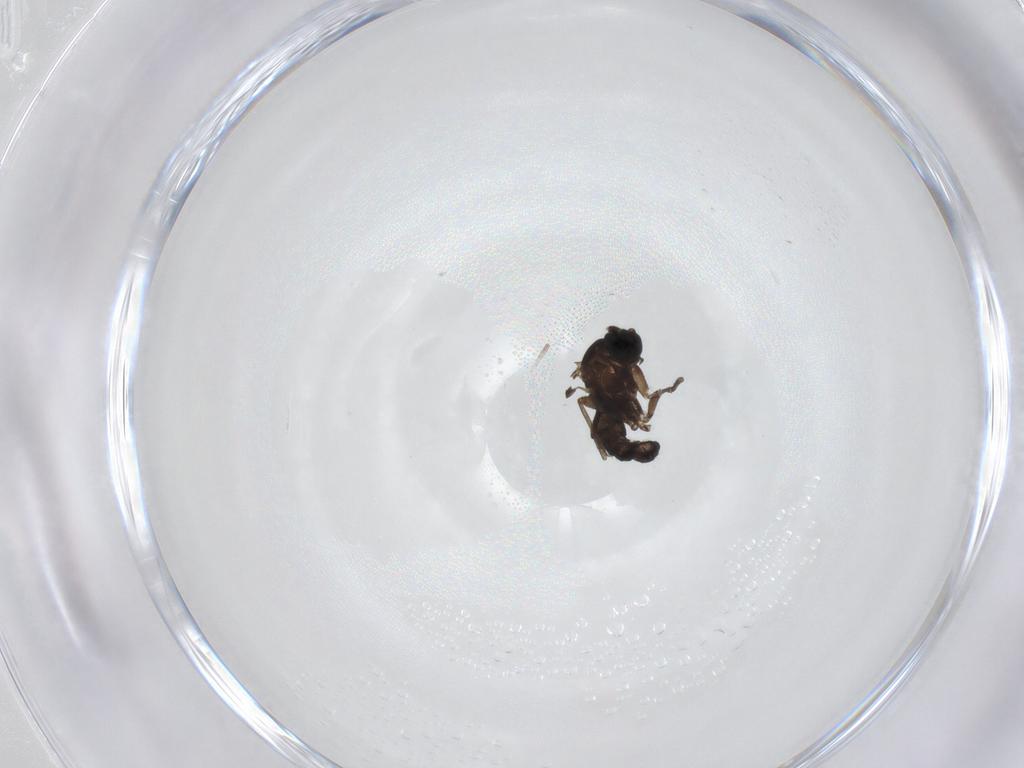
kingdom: Animalia
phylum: Arthropoda
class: Insecta
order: Diptera
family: Sciaridae
